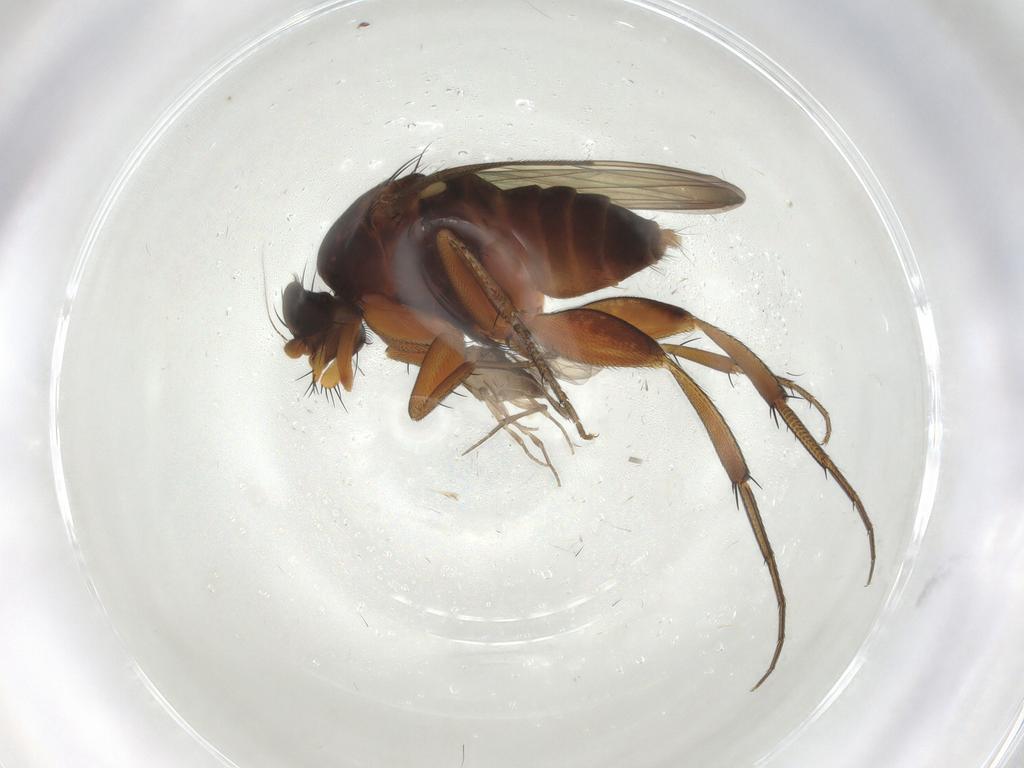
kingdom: Animalia
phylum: Arthropoda
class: Insecta
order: Diptera
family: Phoridae
